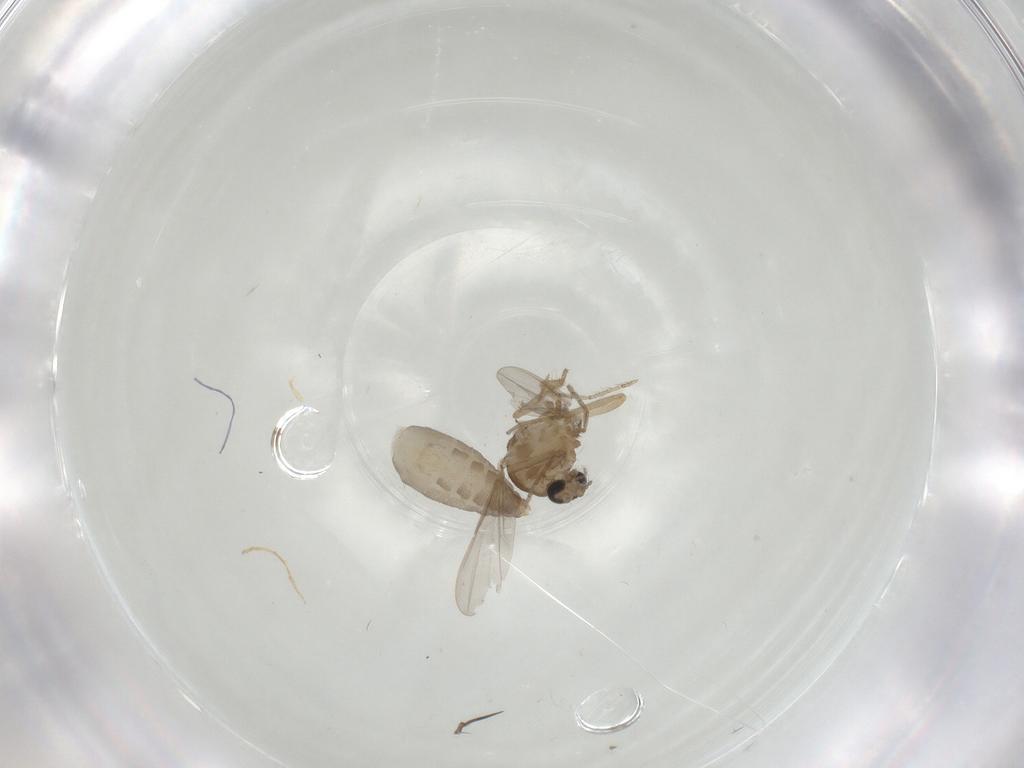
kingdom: Animalia
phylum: Arthropoda
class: Insecta
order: Diptera
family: Ceratopogonidae
